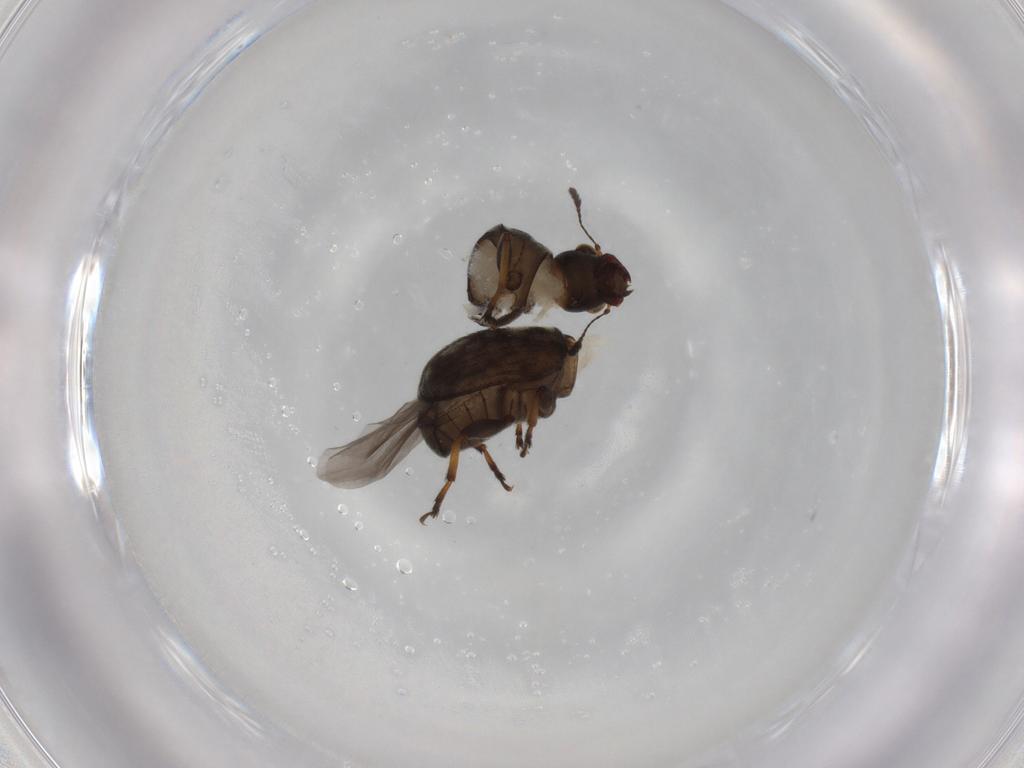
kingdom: Animalia
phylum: Arthropoda
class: Insecta
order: Coleoptera
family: Anthribidae
